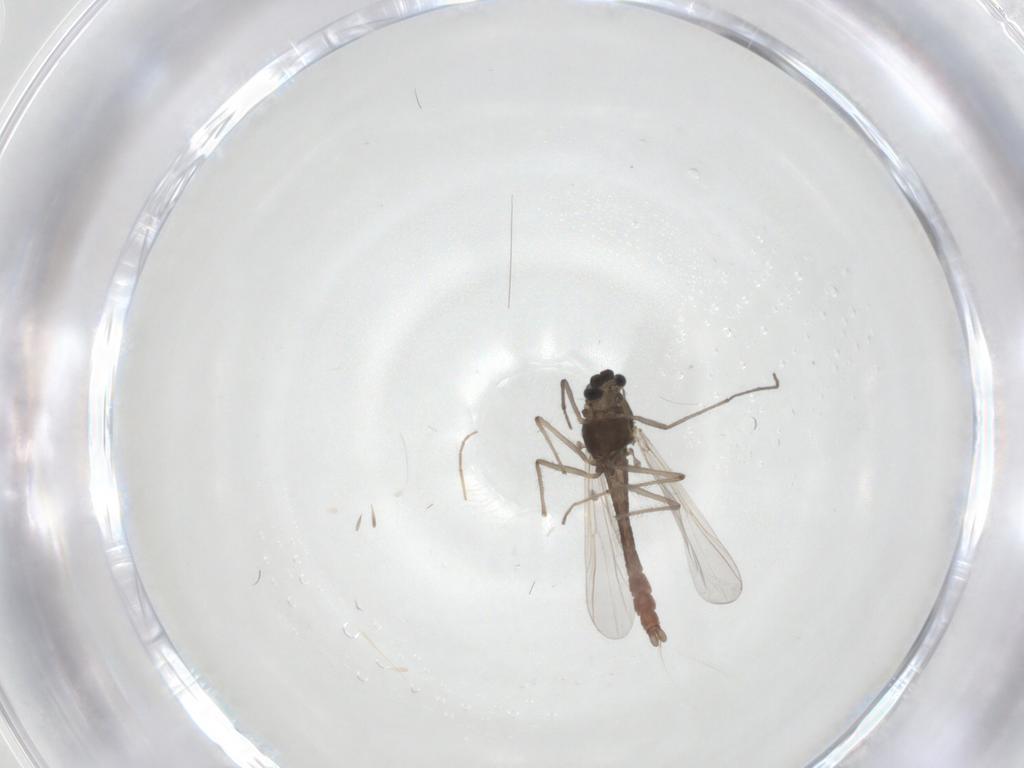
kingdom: Animalia
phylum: Arthropoda
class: Insecta
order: Diptera
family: Chironomidae
